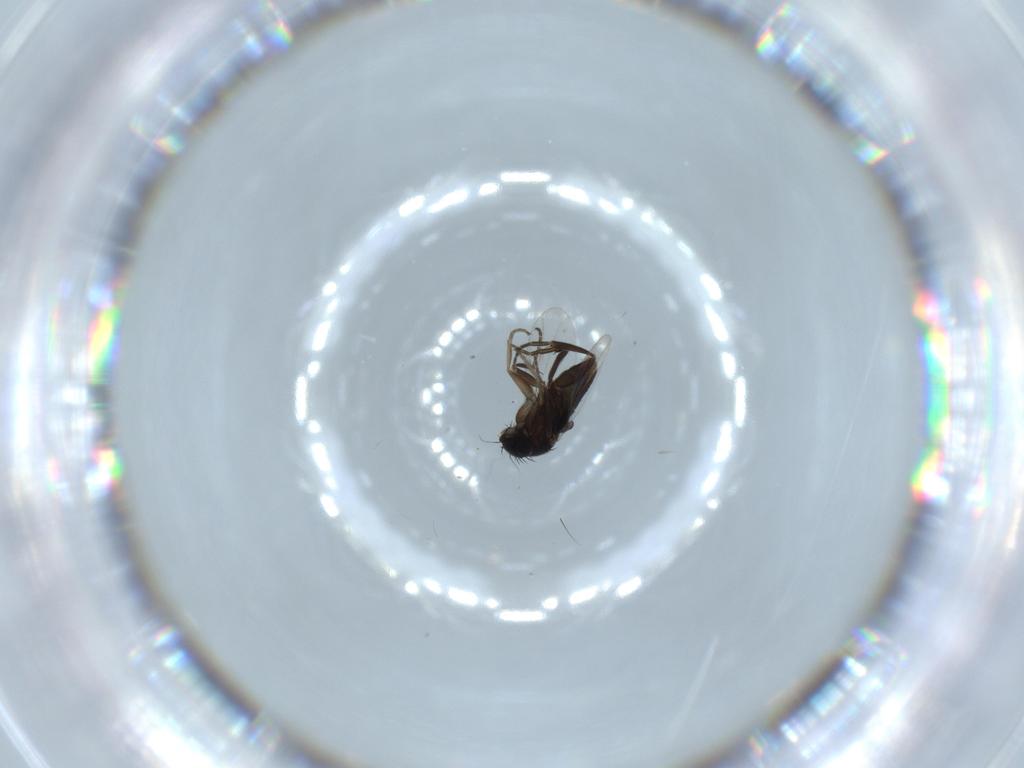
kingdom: Animalia
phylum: Arthropoda
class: Insecta
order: Diptera
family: Phoridae
